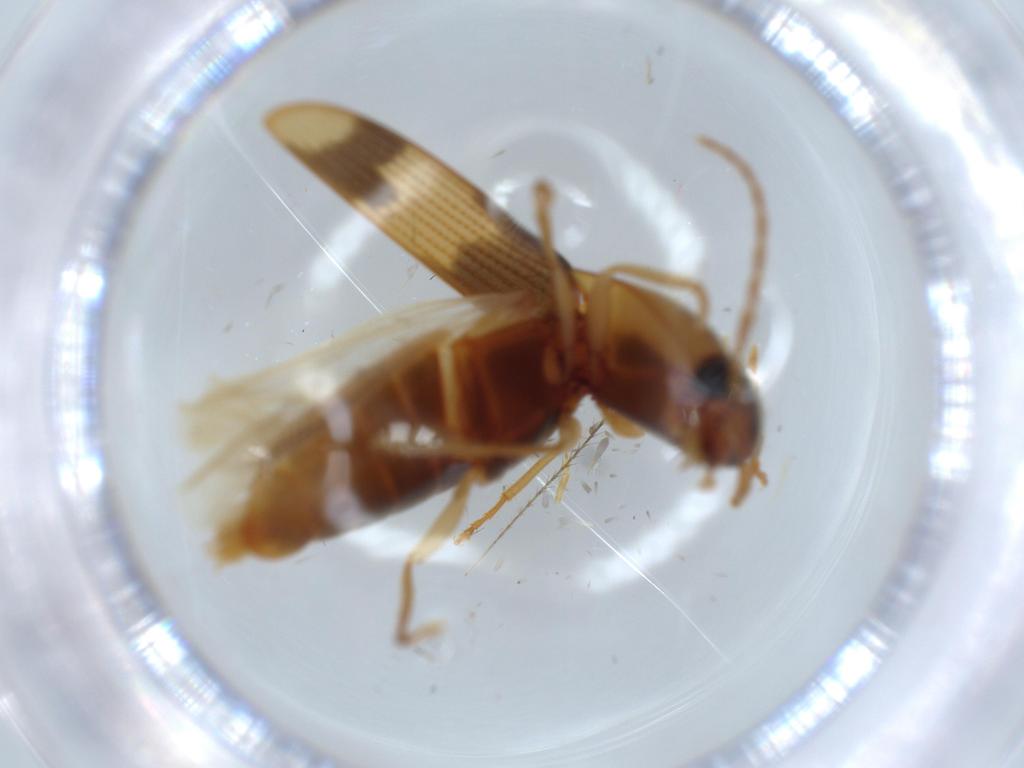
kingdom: Animalia
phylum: Arthropoda
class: Insecta
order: Coleoptera
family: Elateridae
